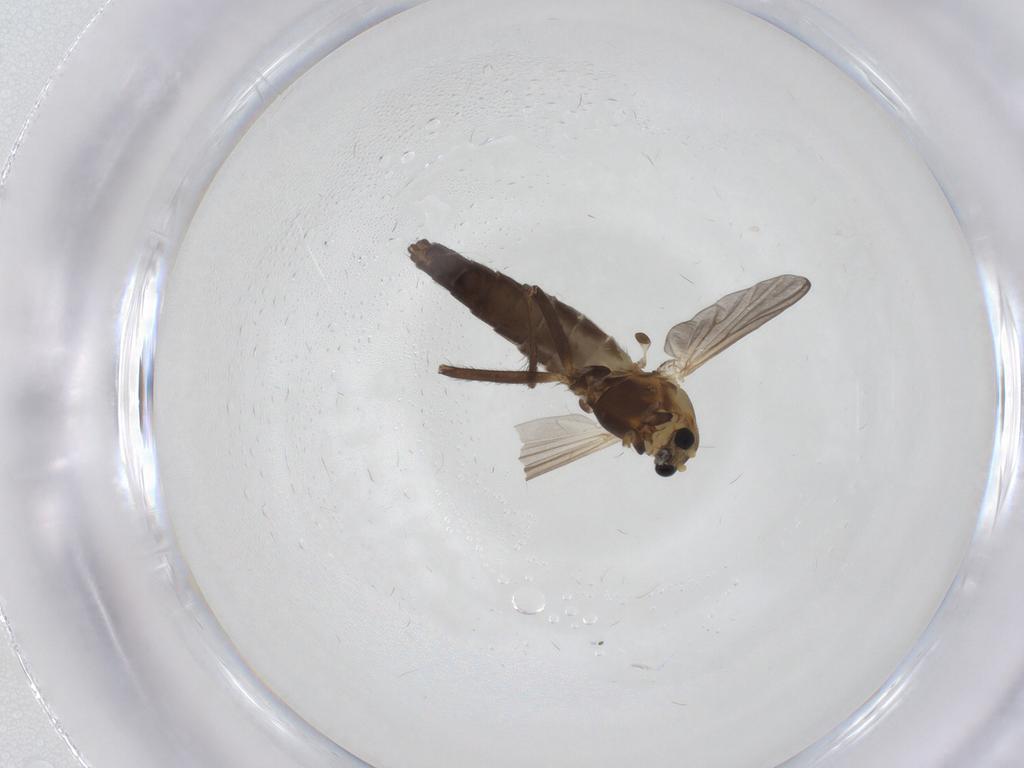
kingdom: Animalia
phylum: Arthropoda
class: Insecta
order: Diptera
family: Chironomidae
